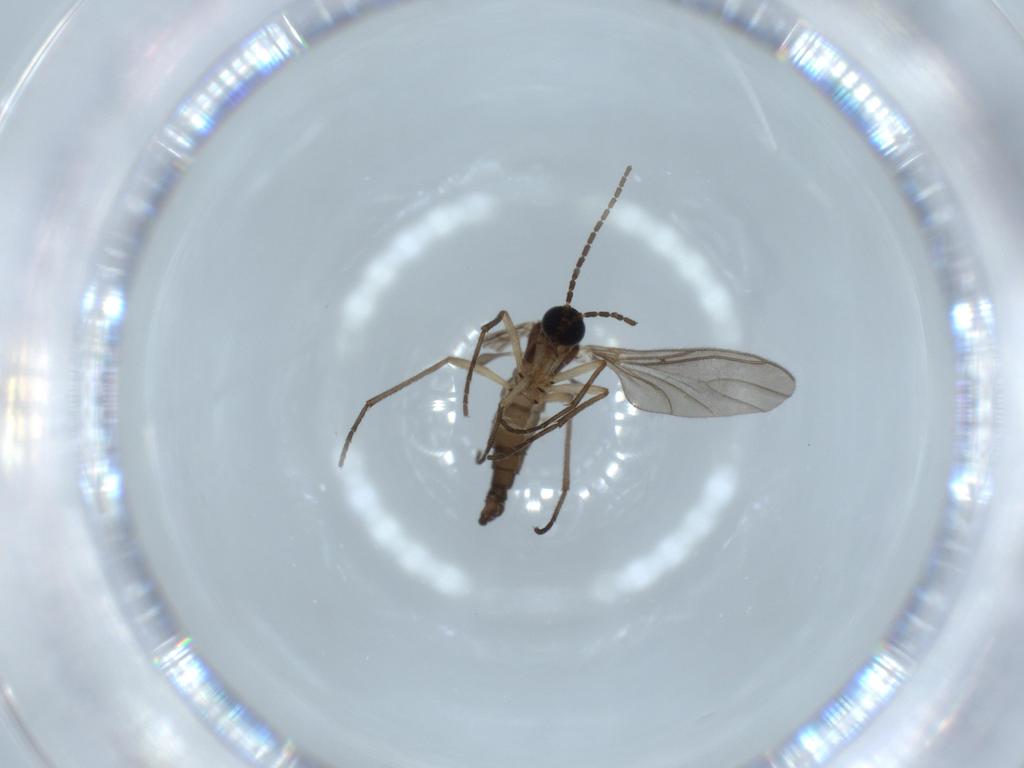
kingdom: Animalia
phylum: Arthropoda
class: Insecta
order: Diptera
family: Sciaridae
